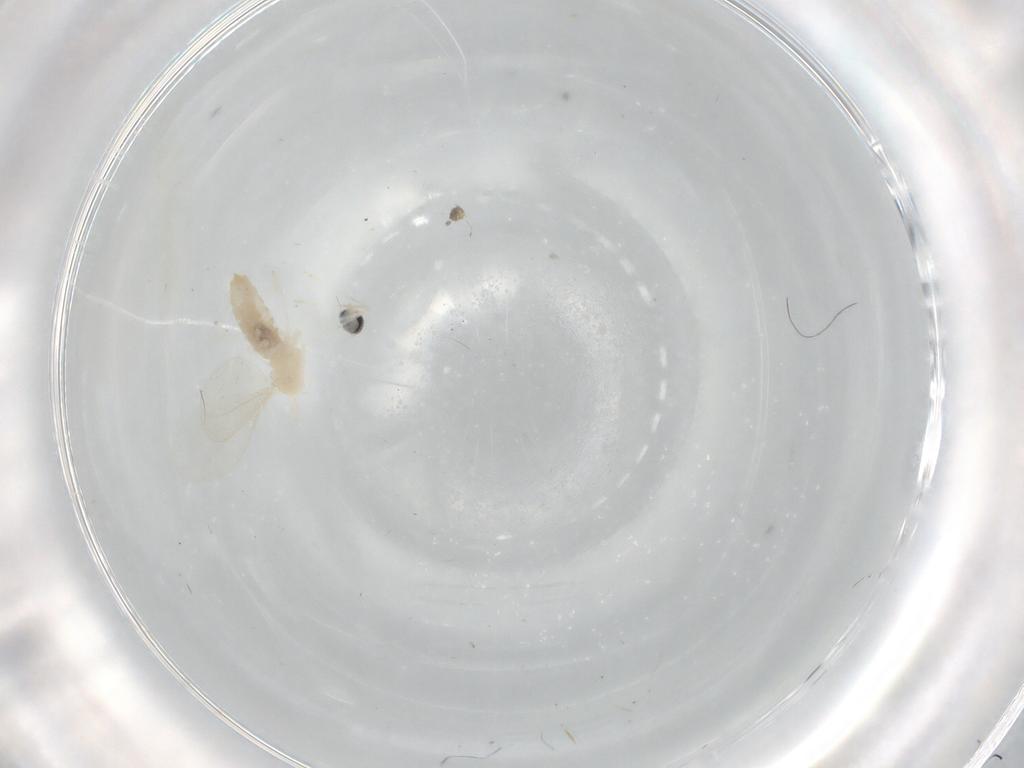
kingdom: Animalia
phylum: Arthropoda
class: Insecta
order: Diptera
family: Cecidomyiidae
